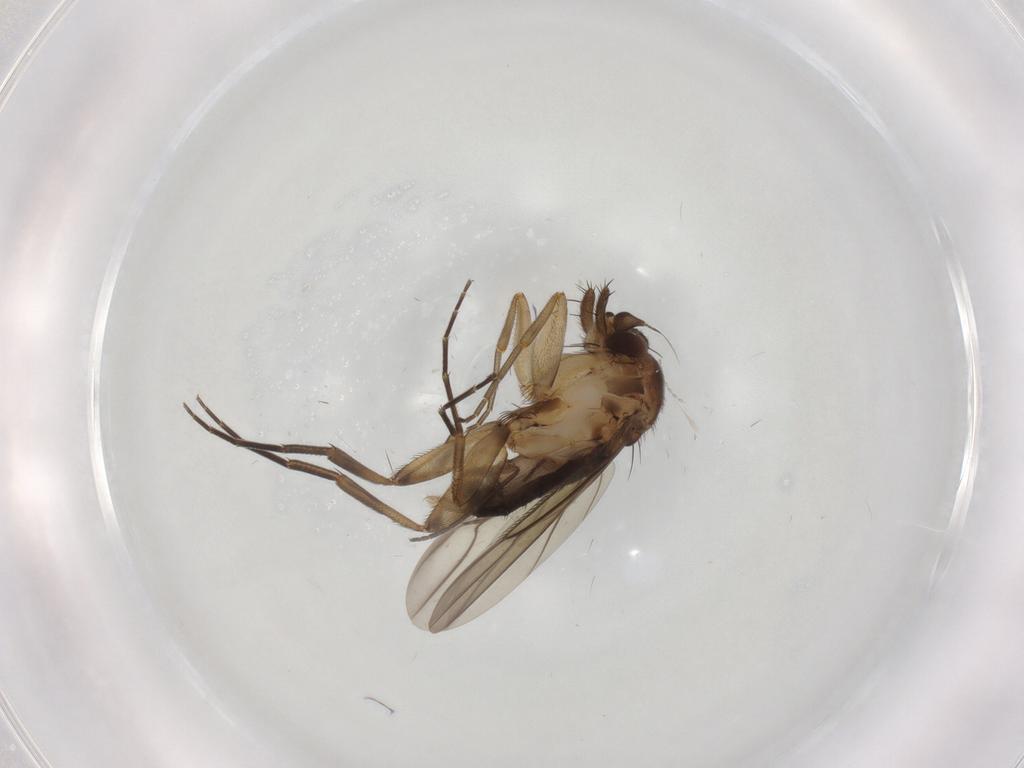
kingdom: Animalia
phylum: Arthropoda
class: Insecta
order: Diptera
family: Phoridae
